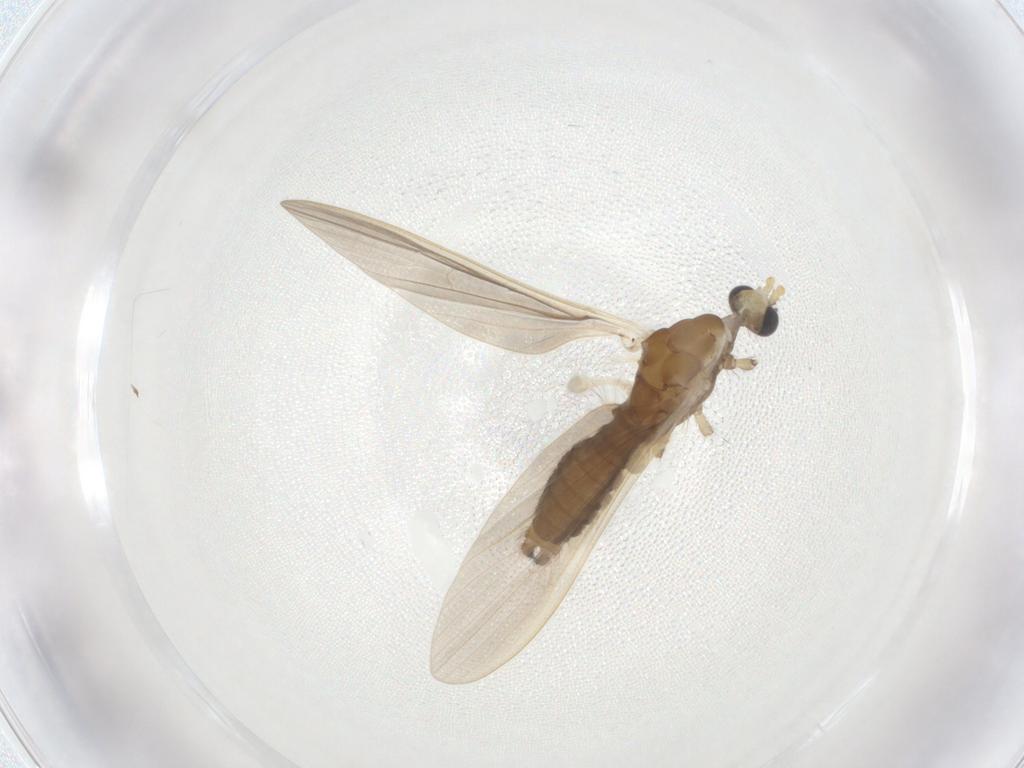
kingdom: Animalia
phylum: Arthropoda
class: Insecta
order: Diptera
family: Limoniidae
